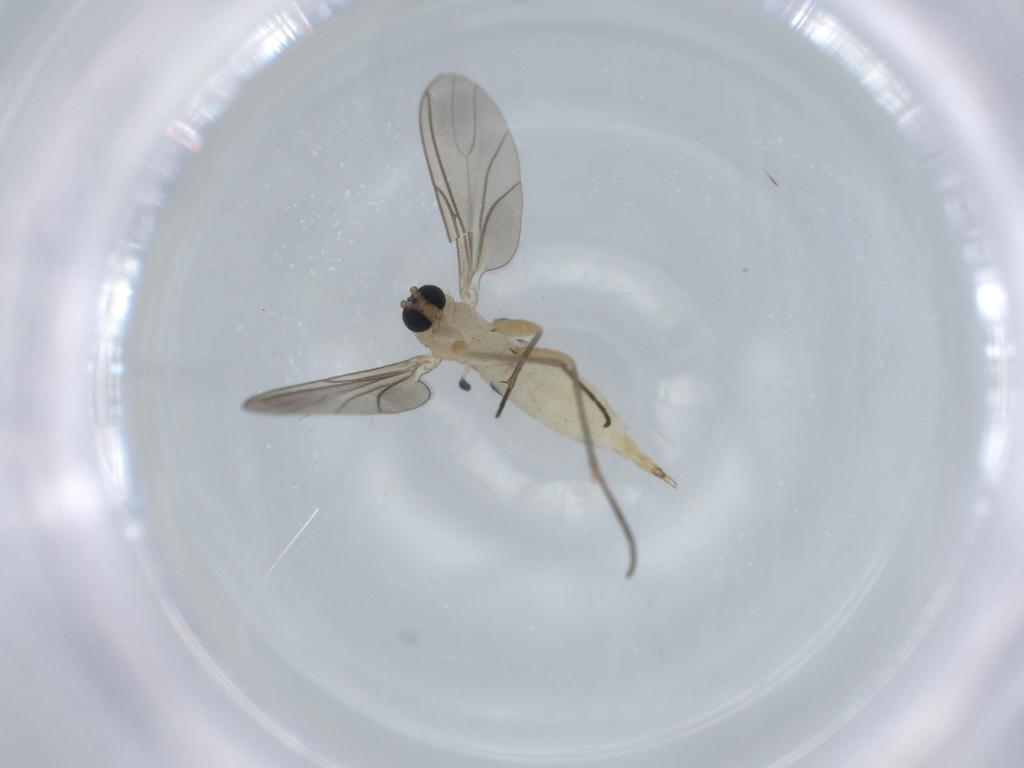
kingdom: Animalia
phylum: Arthropoda
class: Insecta
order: Diptera
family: Sciaridae
